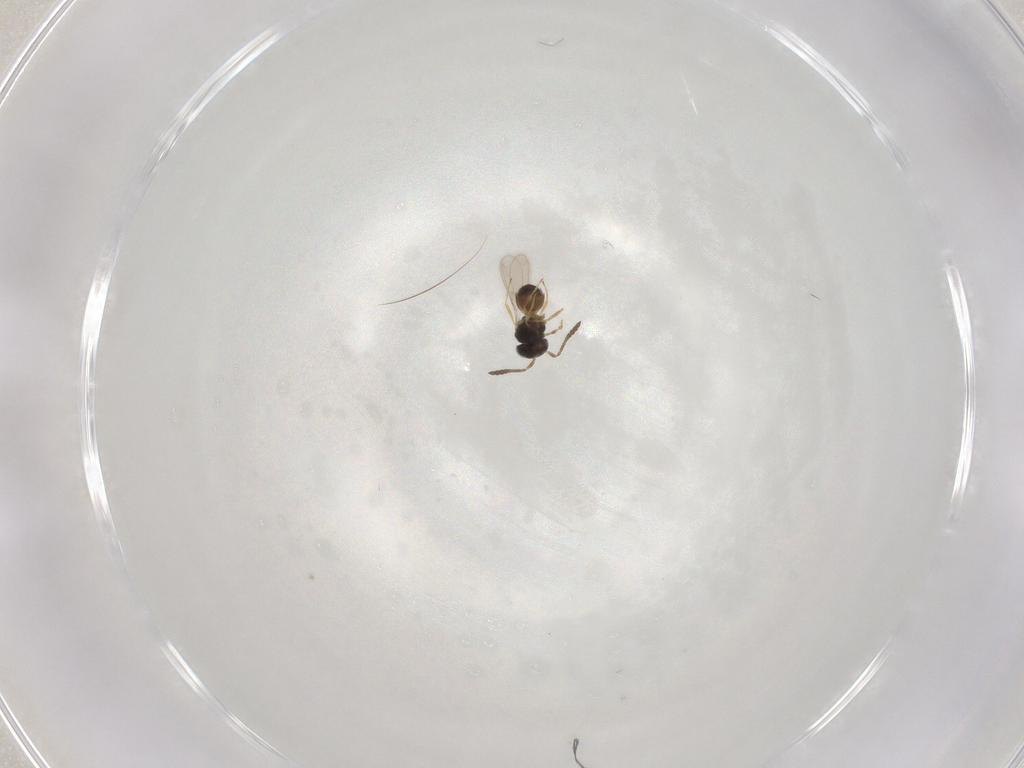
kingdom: Animalia
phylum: Arthropoda
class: Insecta
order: Hymenoptera
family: Scelionidae
